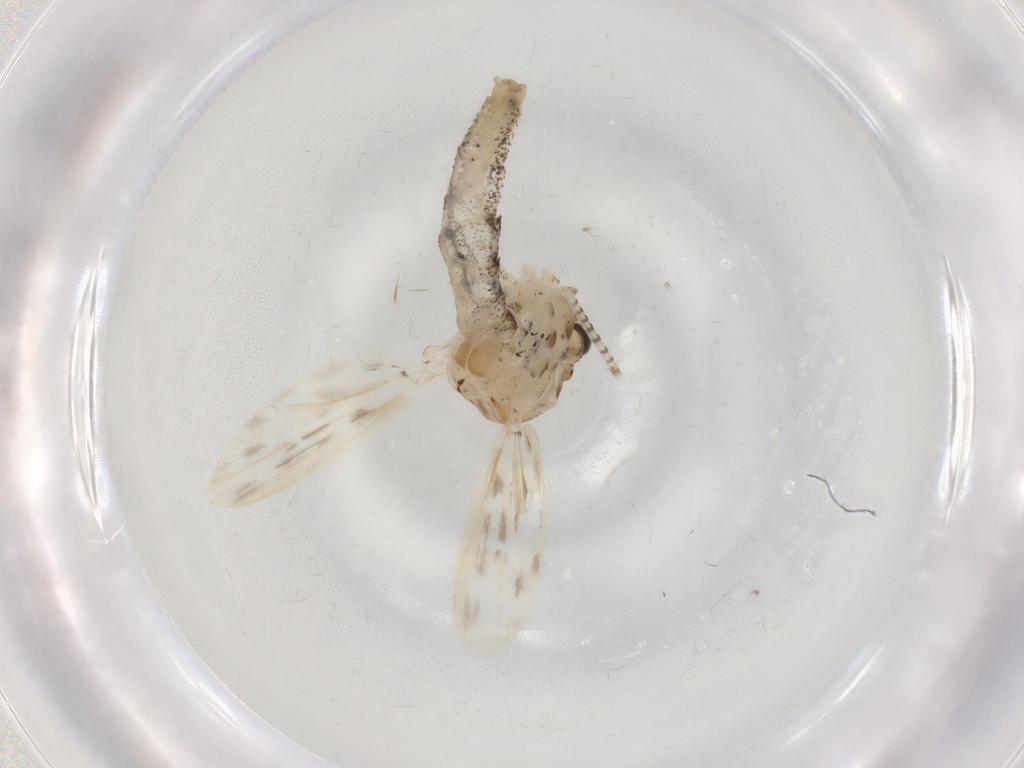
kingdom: Animalia
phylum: Arthropoda
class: Insecta
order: Diptera
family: Chaoboridae
